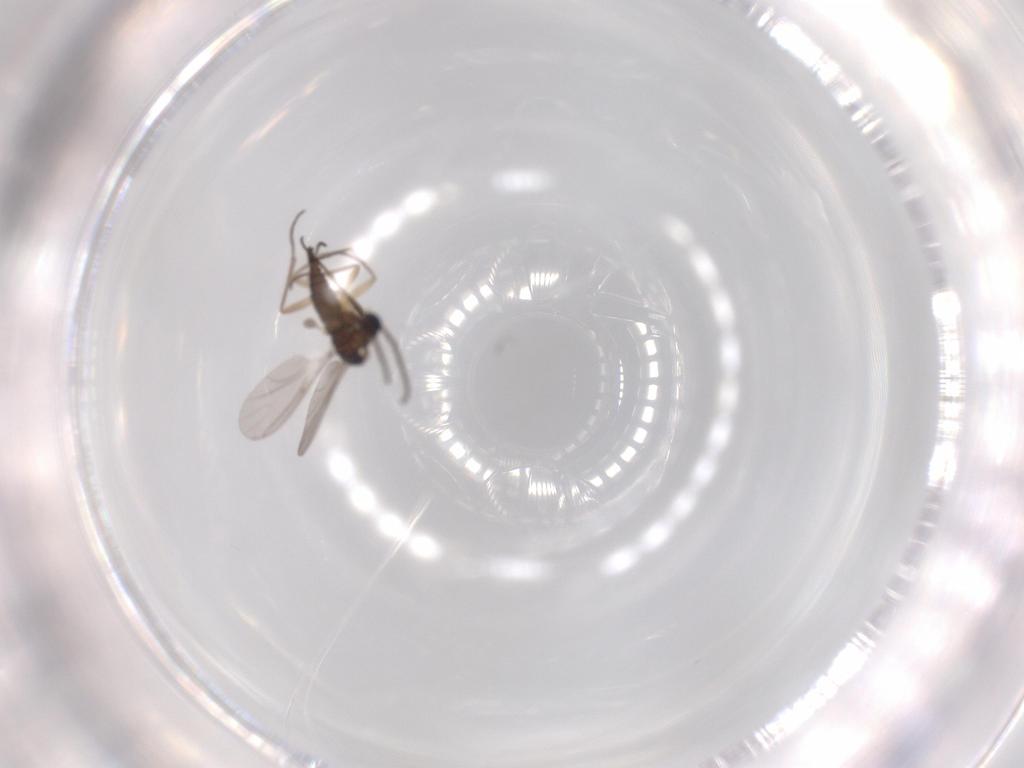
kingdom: Animalia
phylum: Arthropoda
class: Insecta
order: Diptera
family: Sciaridae
